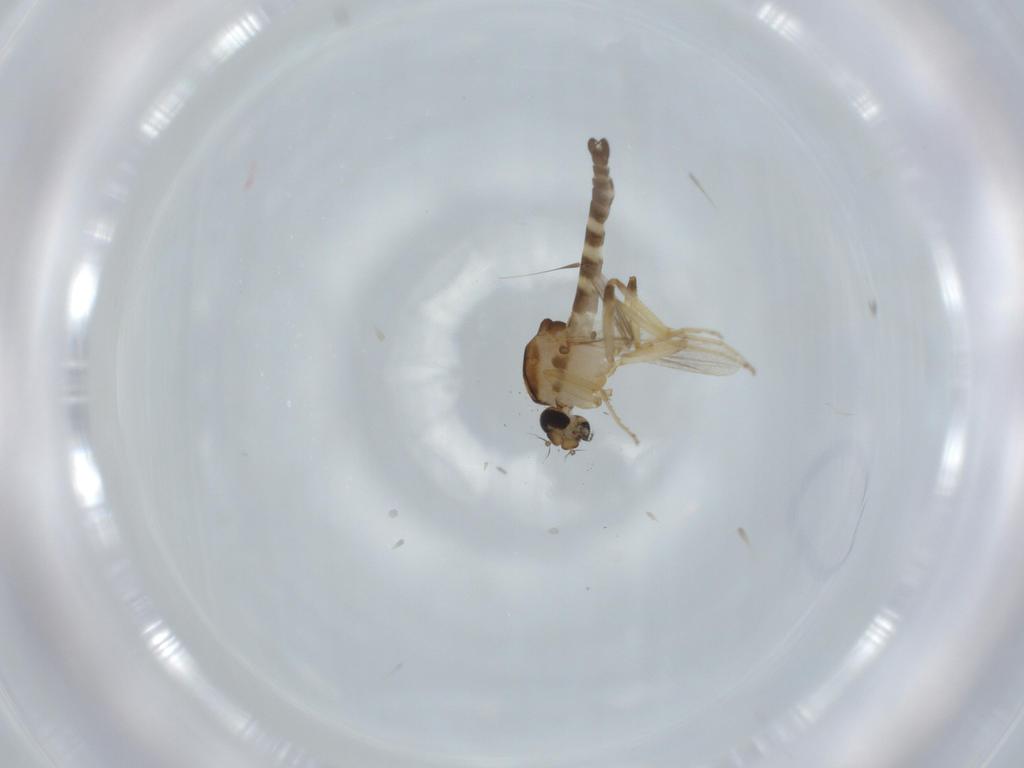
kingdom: Animalia
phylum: Arthropoda
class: Insecta
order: Diptera
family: Ceratopogonidae
